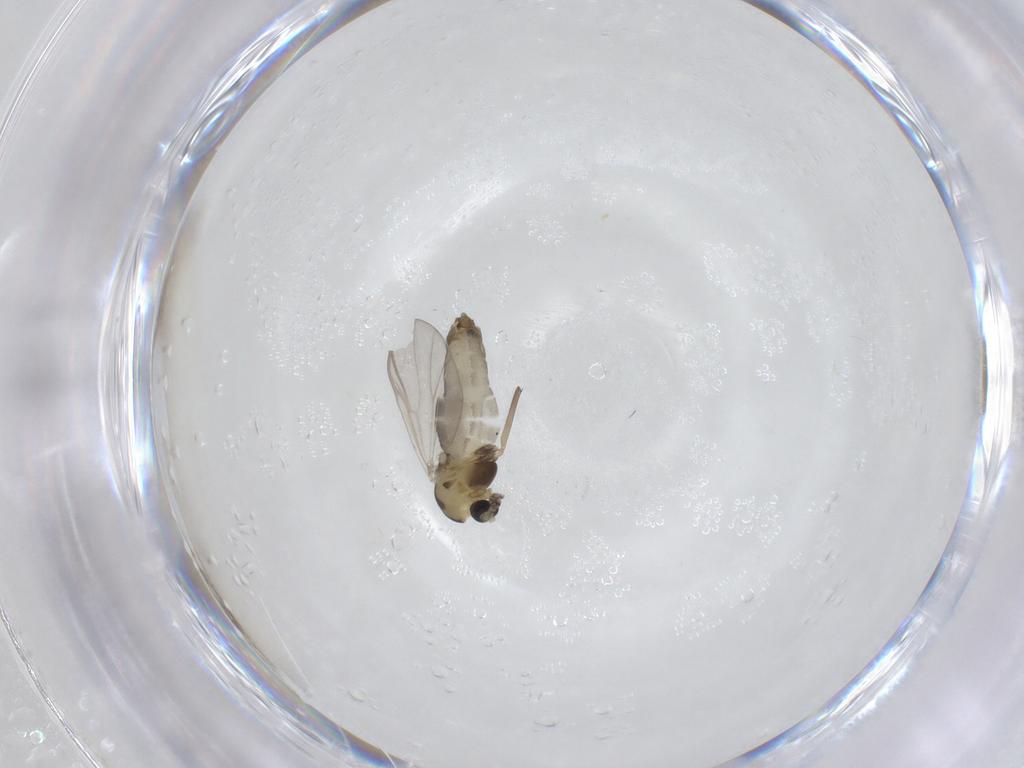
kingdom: Animalia
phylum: Arthropoda
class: Insecta
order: Diptera
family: Chironomidae
